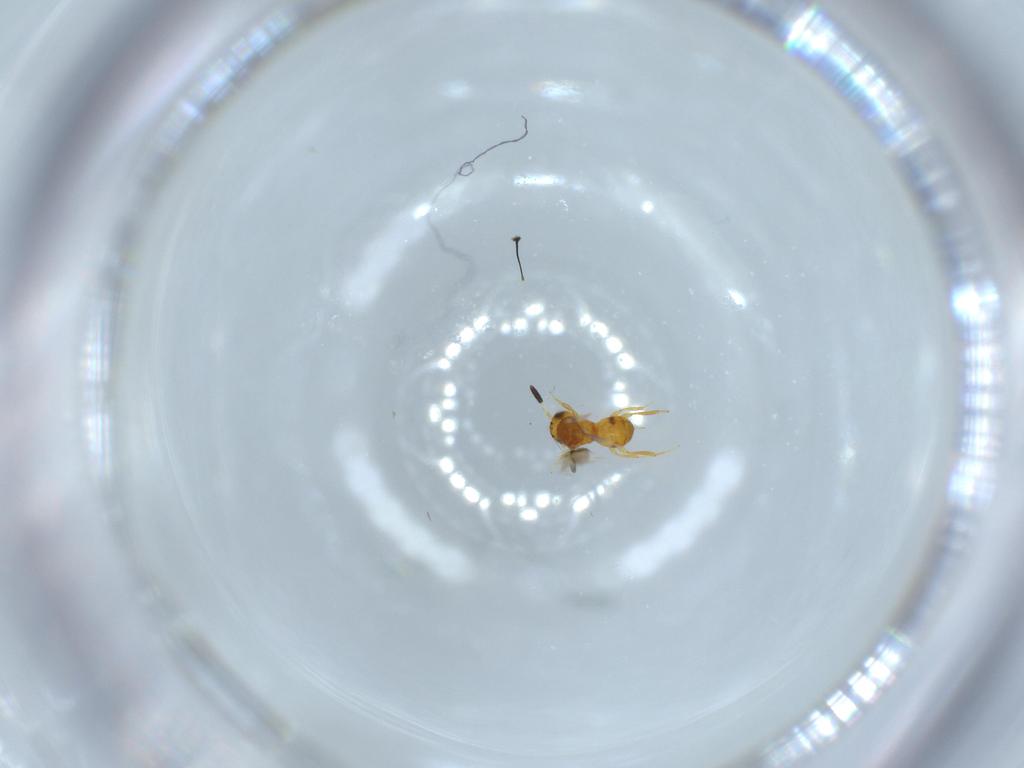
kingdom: Animalia
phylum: Arthropoda
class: Insecta
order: Hymenoptera
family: Scelionidae
